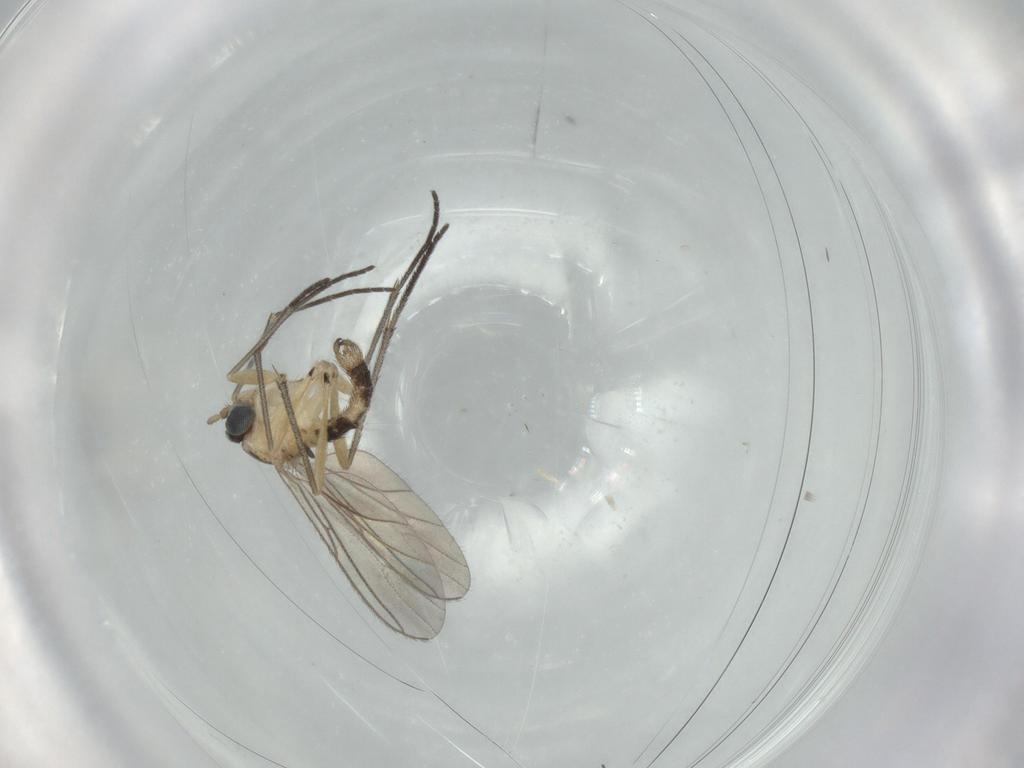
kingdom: Animalia
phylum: Arthropoda
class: Insecta
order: Diptera
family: Sciaridae
